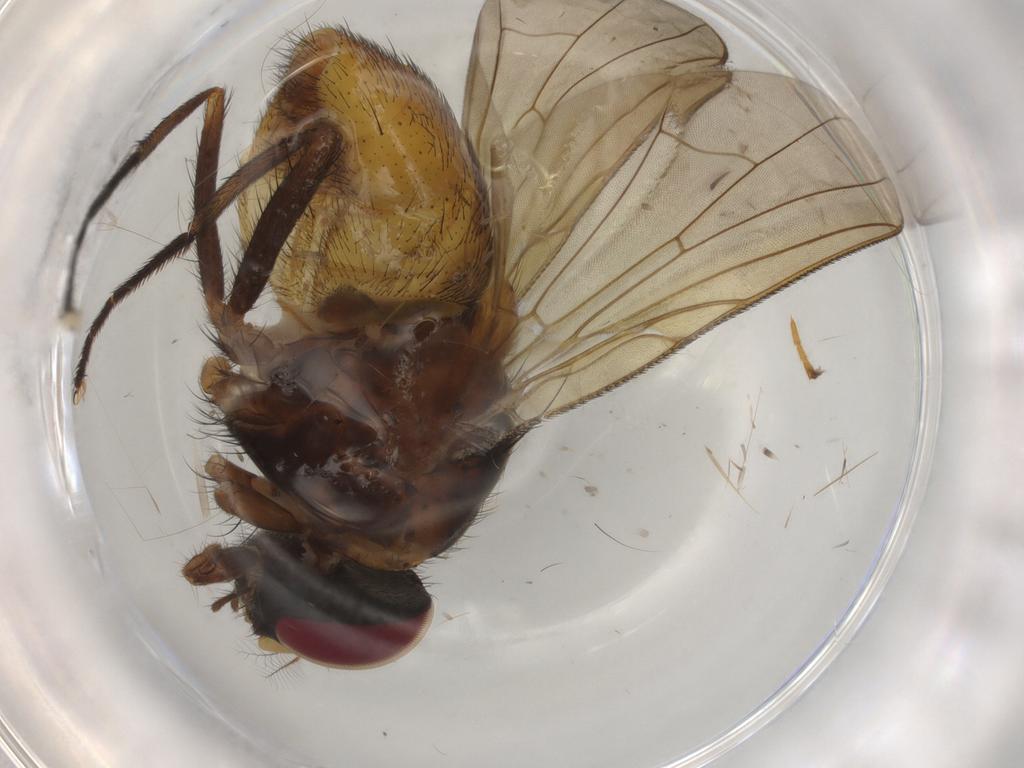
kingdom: Animalia
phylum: Arthropoda
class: Insecta
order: Diptera
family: Cecidomyiidae
